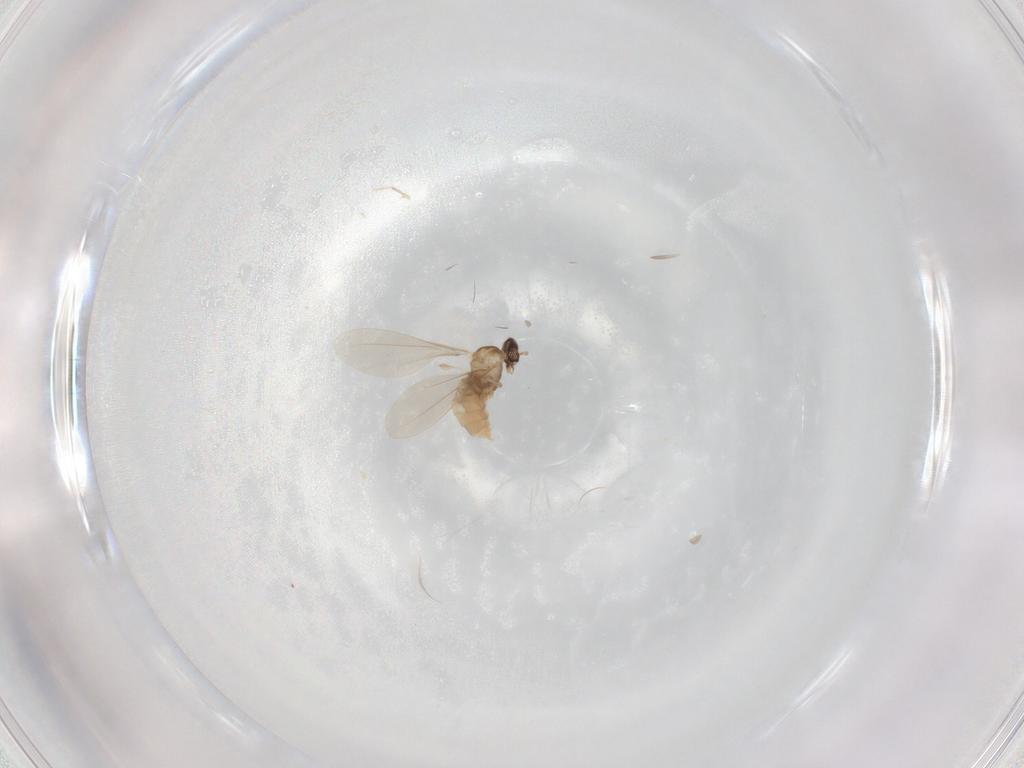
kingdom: Animalia
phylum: Arthropoda
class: Insecta
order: Diptera
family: Cecidomyiidae
